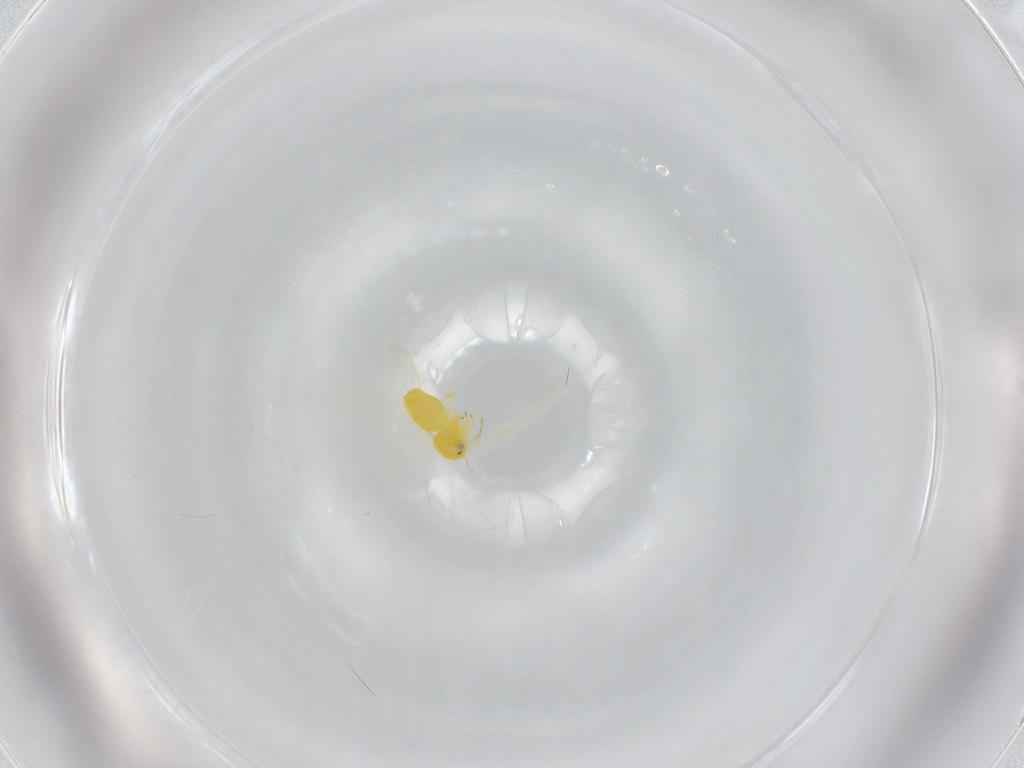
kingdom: Animalia
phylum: Arthropoda
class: Insecta
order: Hemiptera
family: Aleyrodidae
